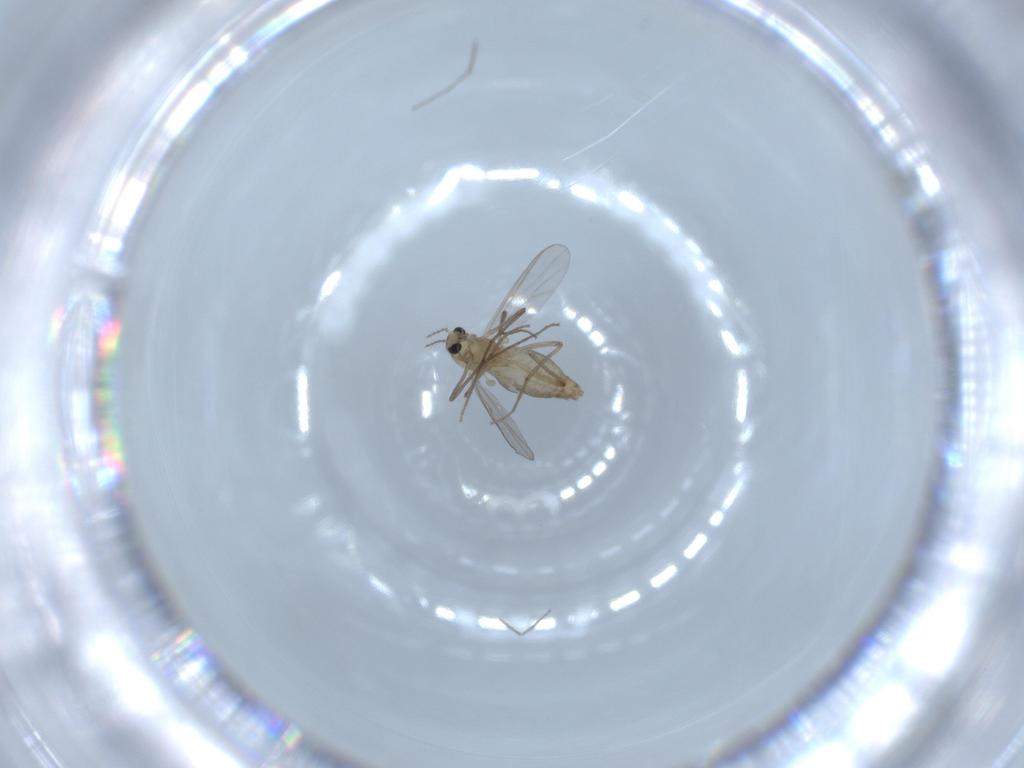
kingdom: Animalia
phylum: Arthropoda
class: Insecta
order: Diptera
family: Chironomidae
